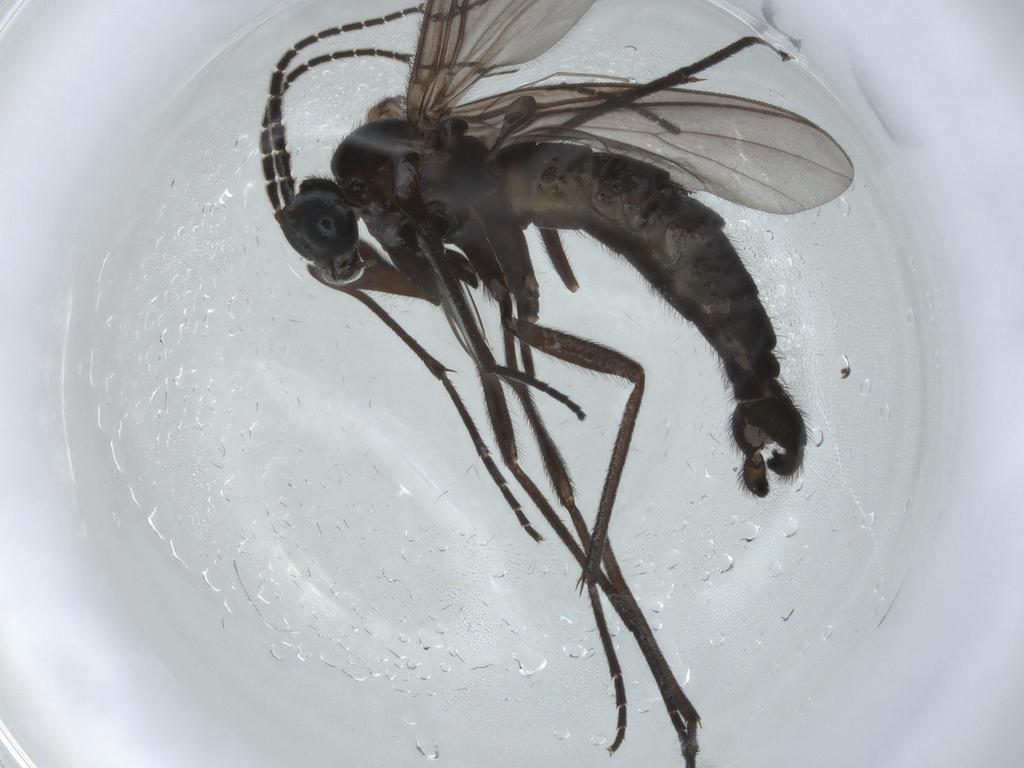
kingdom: Animalia
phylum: Arthropoda
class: Insecta
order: Diptera
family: Sciaridae
